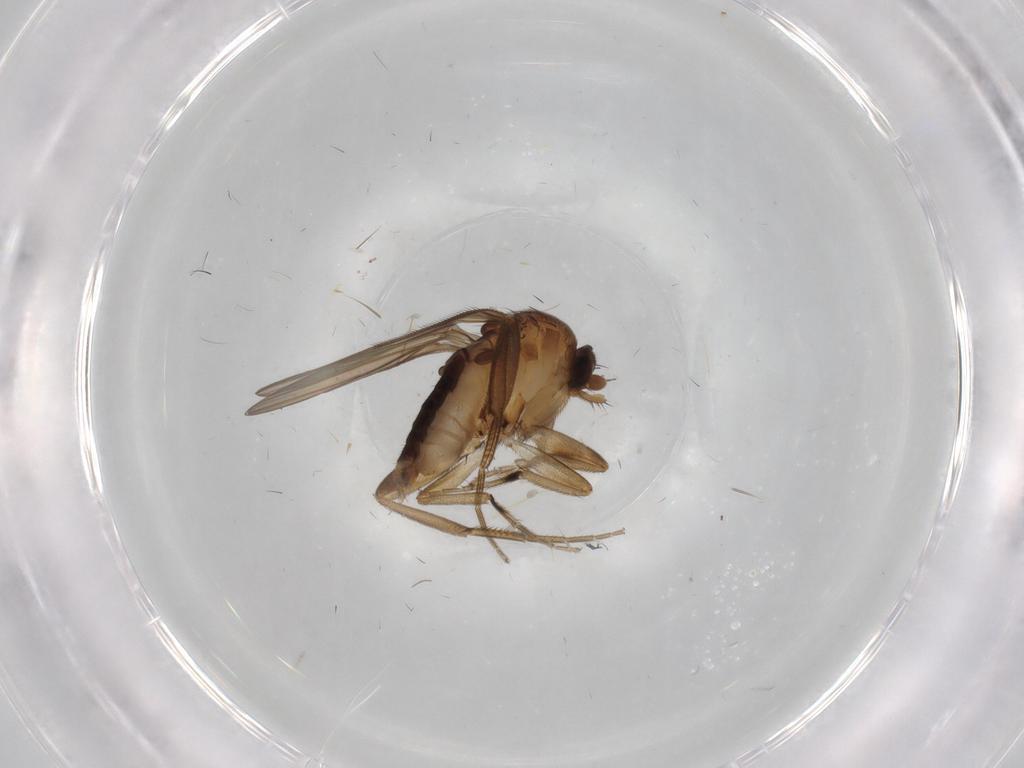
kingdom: Animalia
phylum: Arthropoda
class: Insecta
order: Diptera
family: Phoridae
